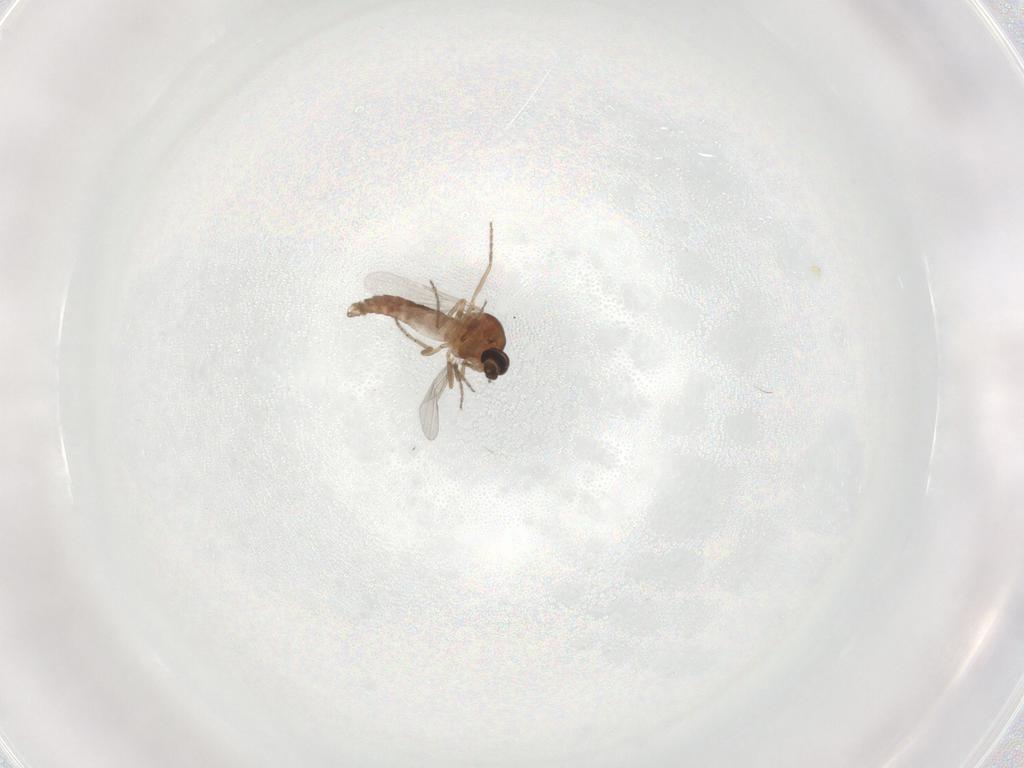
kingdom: Animalia
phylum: Arthropoda
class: Insecta
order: Diptera
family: Ceratopogonidae
